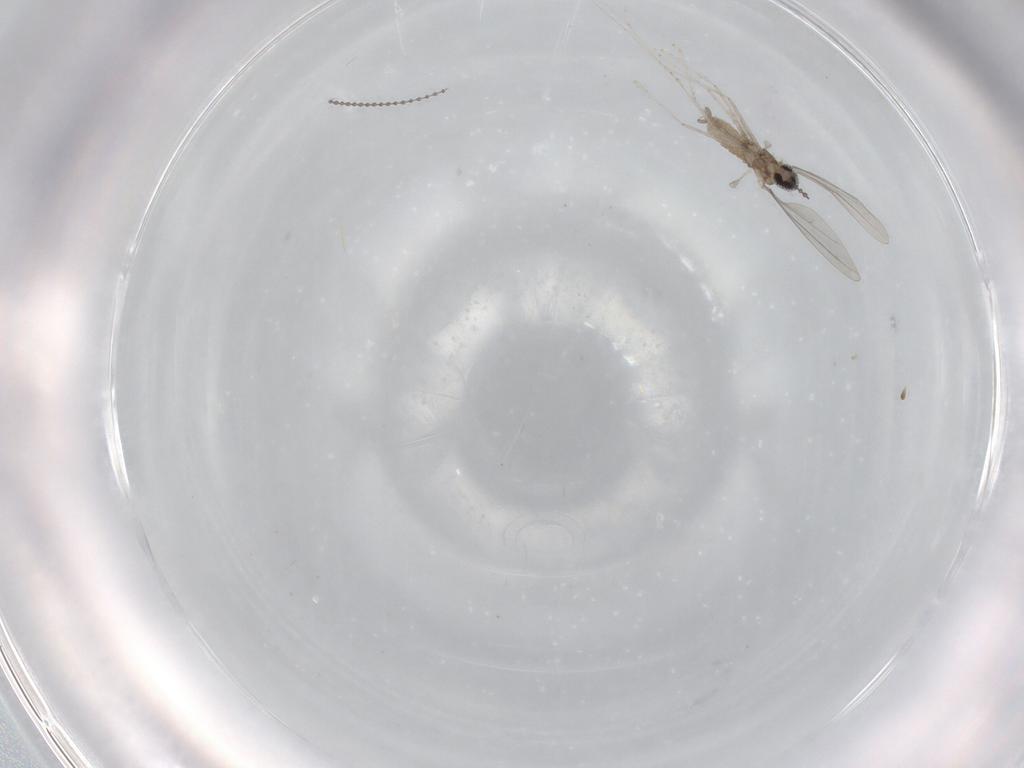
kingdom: Animalia
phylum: Arthropoda
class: Insecta
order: Diptera
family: Cecidomyiidae
